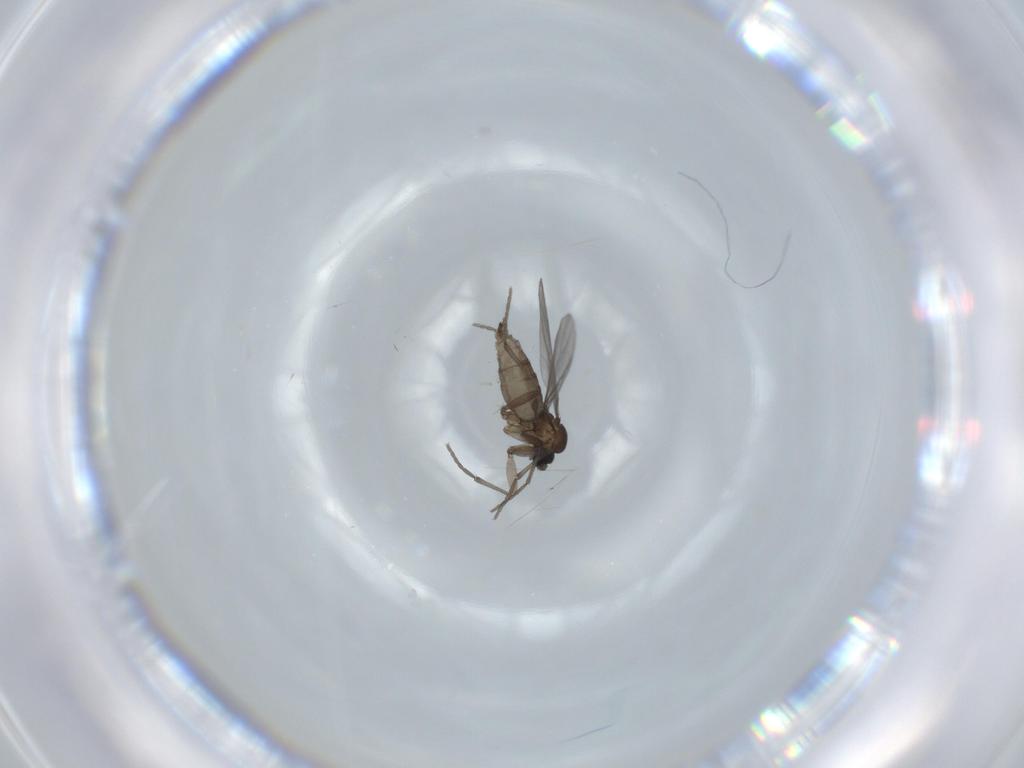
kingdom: Animalia
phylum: Arthropoda
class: Insecta
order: Diptera
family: Sciaridae
